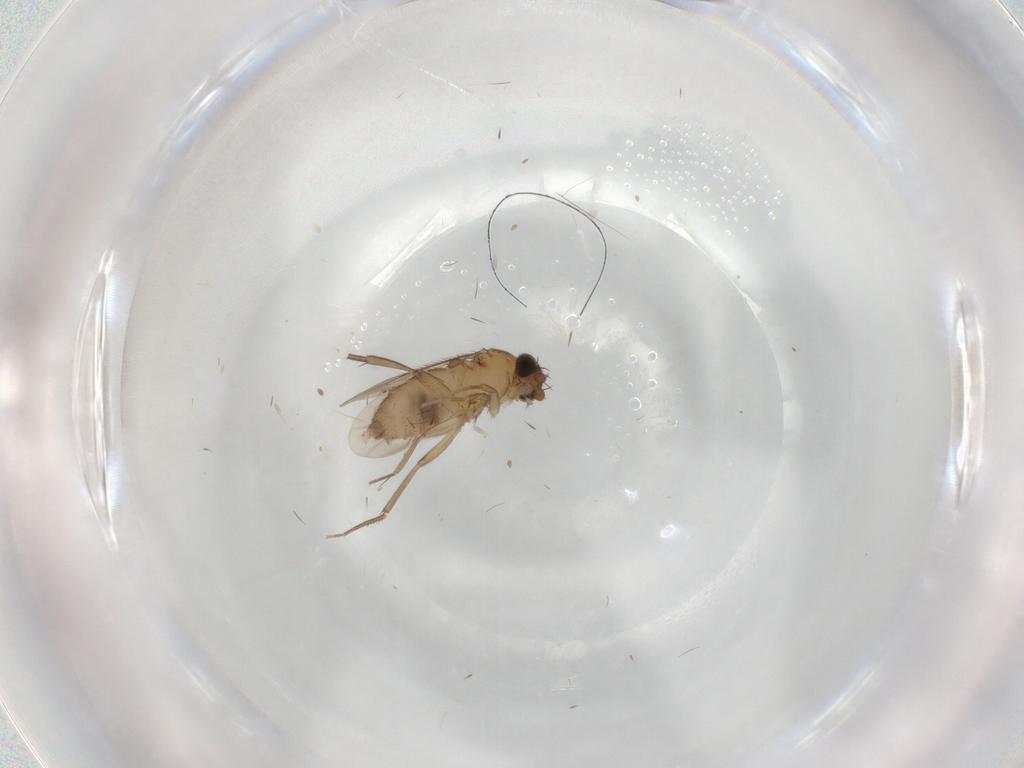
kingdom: Animalia
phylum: Arthropoda
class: Insecta
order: Diptera
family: Phoridae
